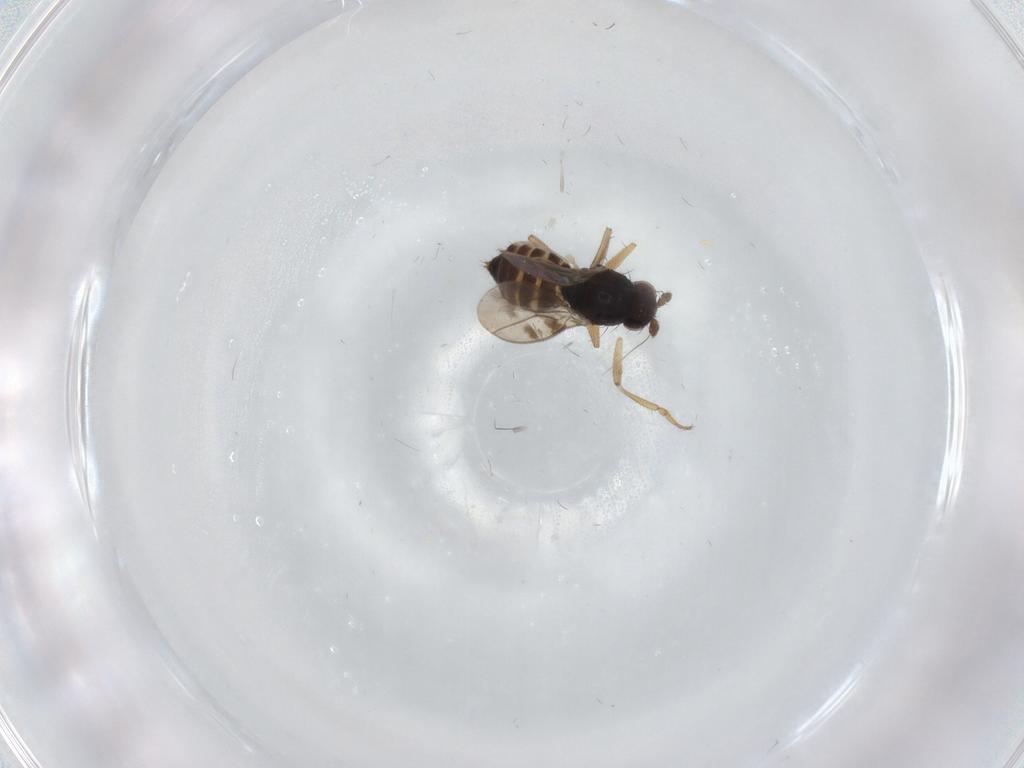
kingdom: Animalia
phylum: Arthropoda
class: Insecta
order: Diptera
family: Sphaeroceridae
